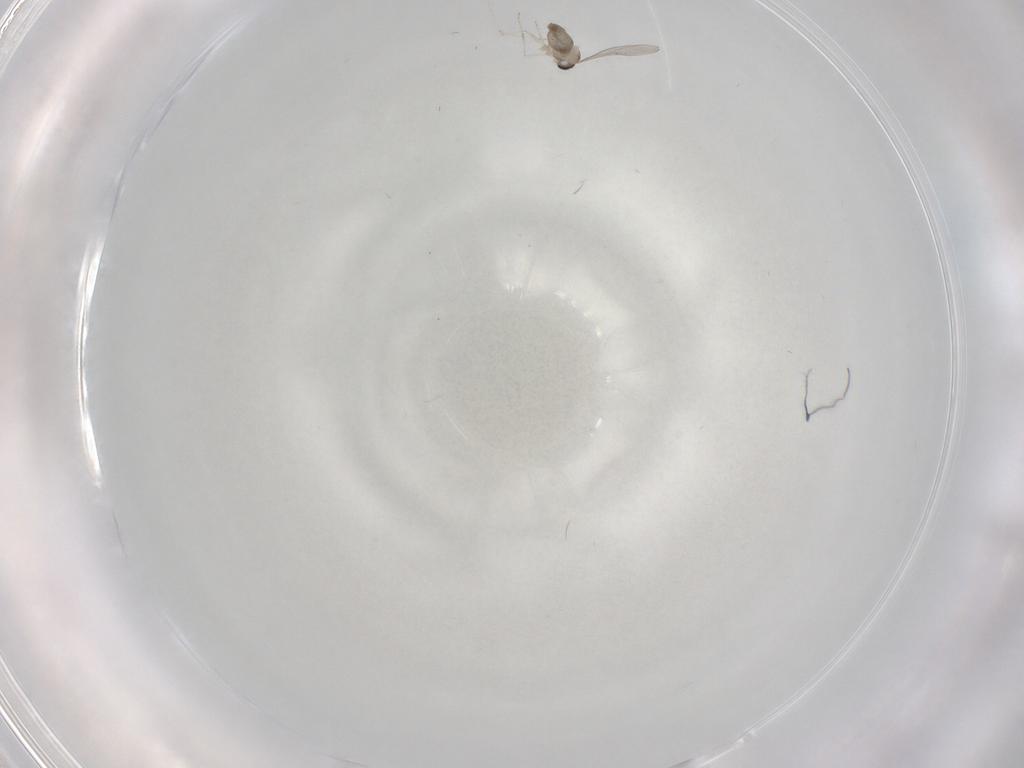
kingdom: Animalia
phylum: Arthropoda
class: Insecta
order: Diptera
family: Psychodidae
